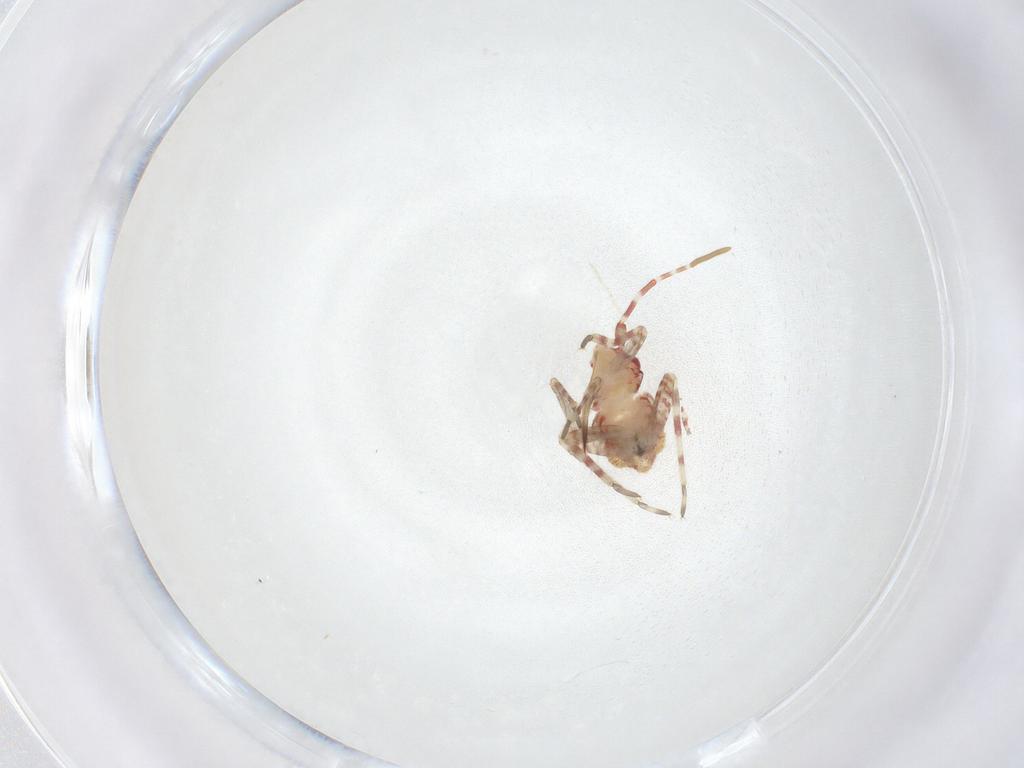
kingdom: Animalia
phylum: Arthropoda
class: Insecta
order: Hemiptera
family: Miridae
